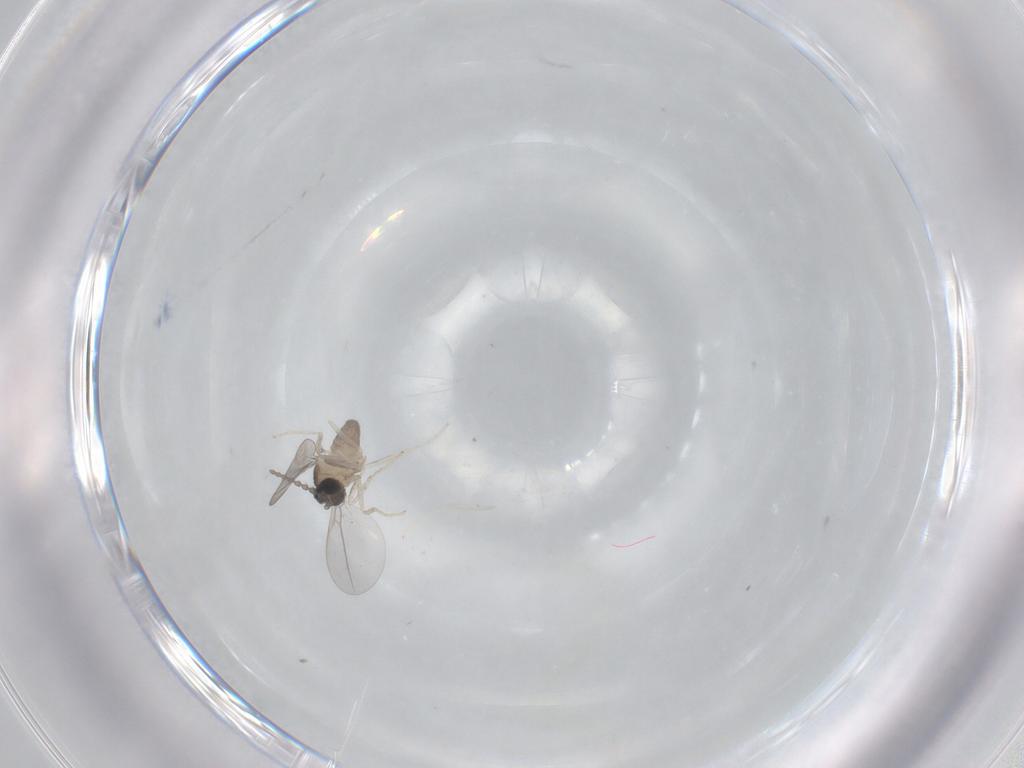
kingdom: Animalia
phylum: Arthropoda
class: Insecta
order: Diptera
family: Cecidomyiidae
